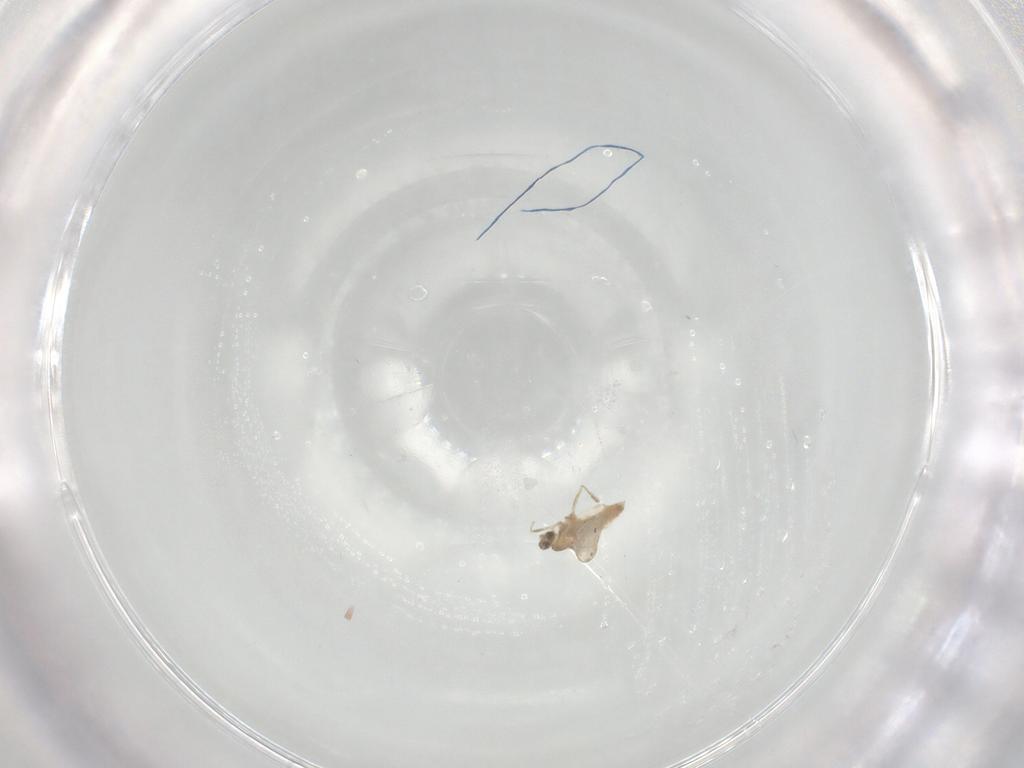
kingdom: Animalia
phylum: Arthropoda
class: Insecta
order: Diptera
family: Cecidomyiidae
